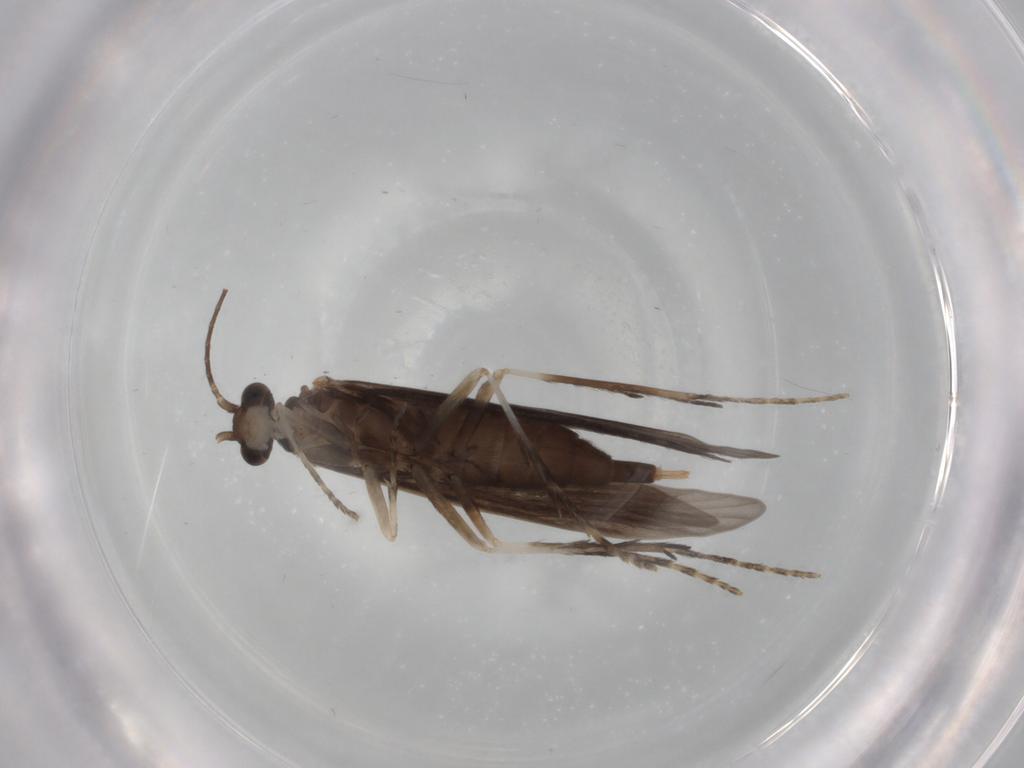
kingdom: Animalia
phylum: Arthropoda
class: Insecta
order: Trichoptera
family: Xiphocentronidae
